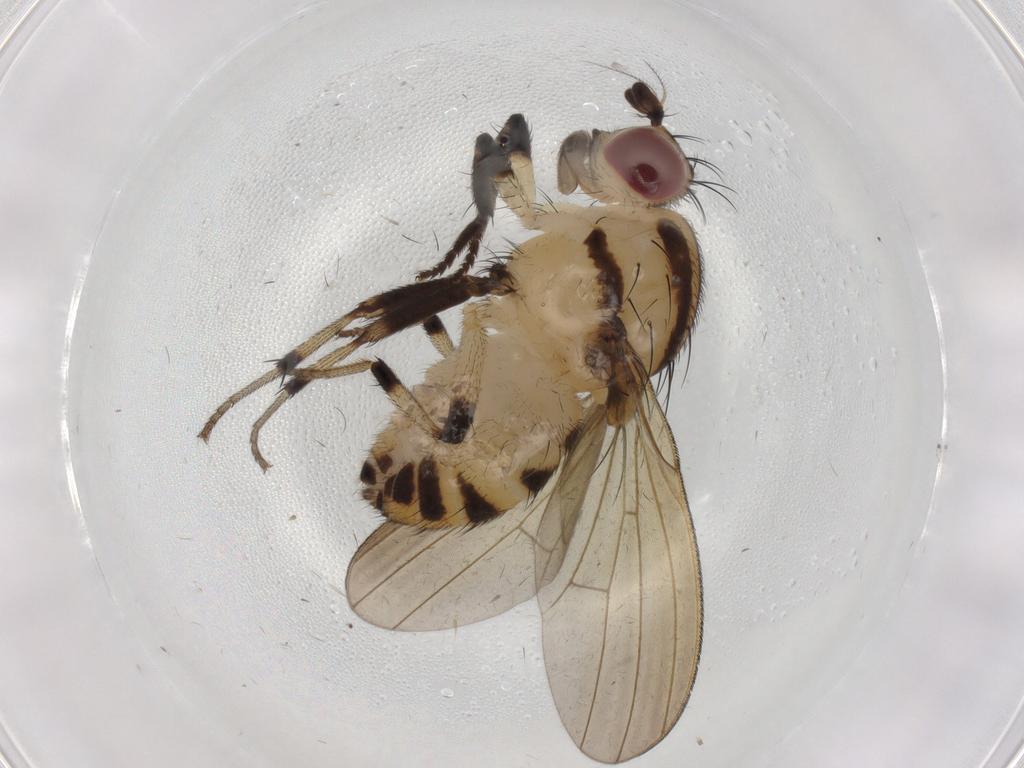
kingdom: Animalia
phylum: Arthropoda
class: Insecta
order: Diptera
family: Lauxaniidae
